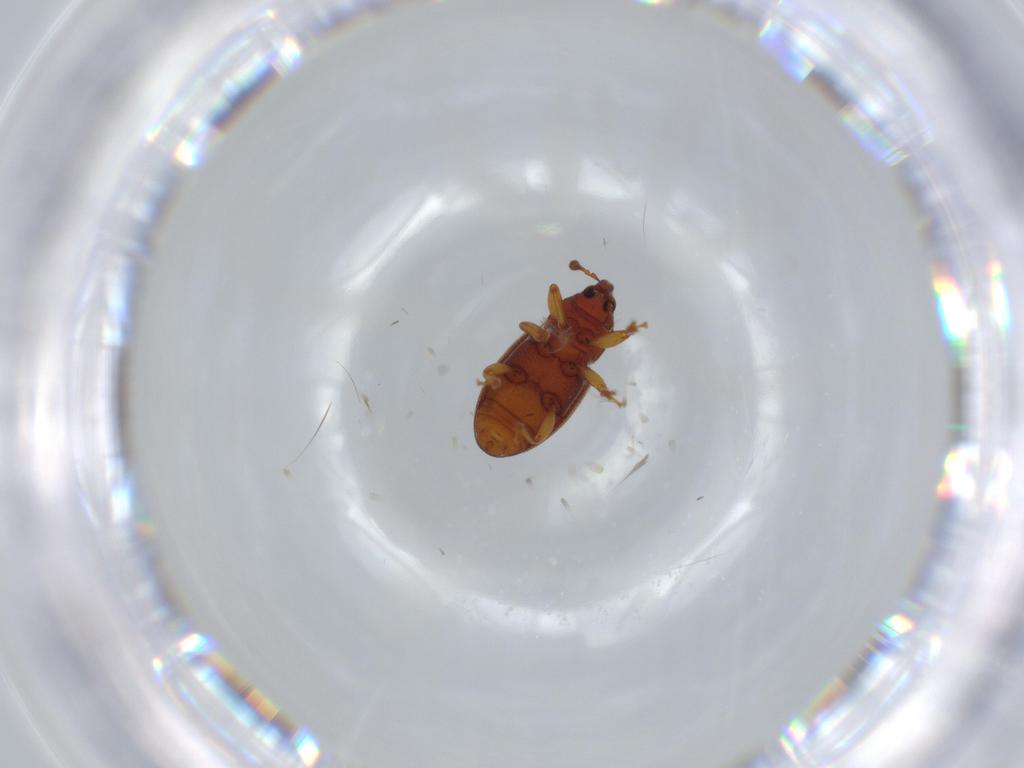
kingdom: Animalia
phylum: Arthropoda
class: Insecta
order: Coleoptera
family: Curculionidae
